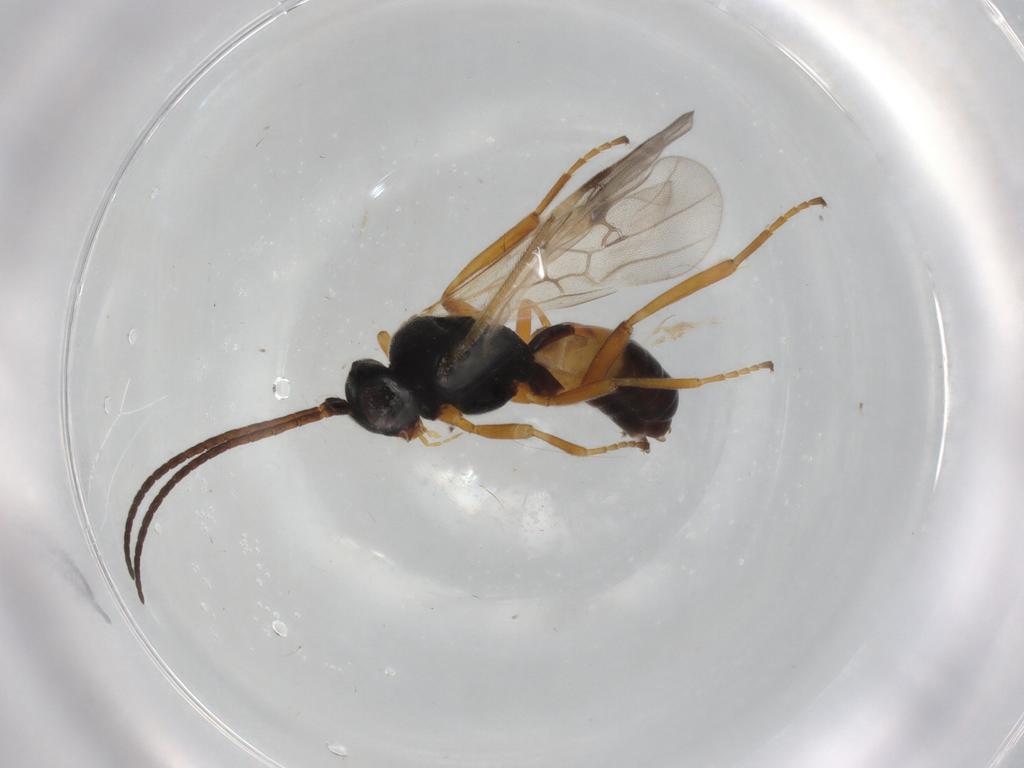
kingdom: Animalia
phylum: Arthropoda
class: Insecta
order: Hymenoptera
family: Braconidae
